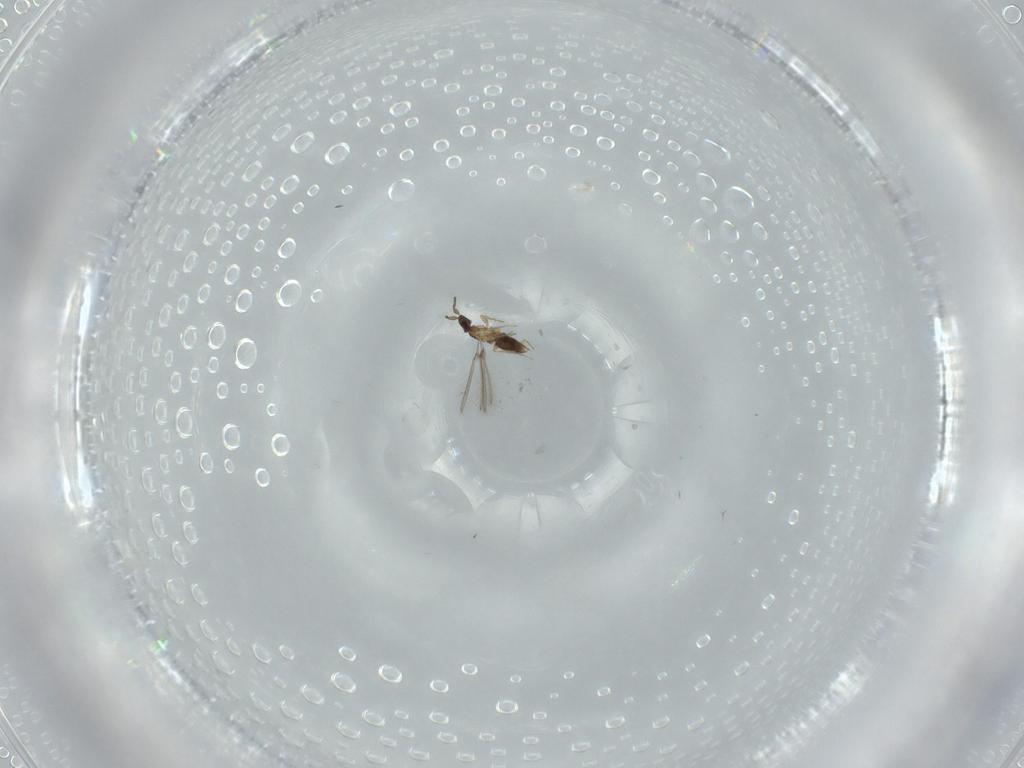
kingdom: Animalia
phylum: Arthropoda
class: Insecta
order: Hymenoptera
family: Mymaridae
